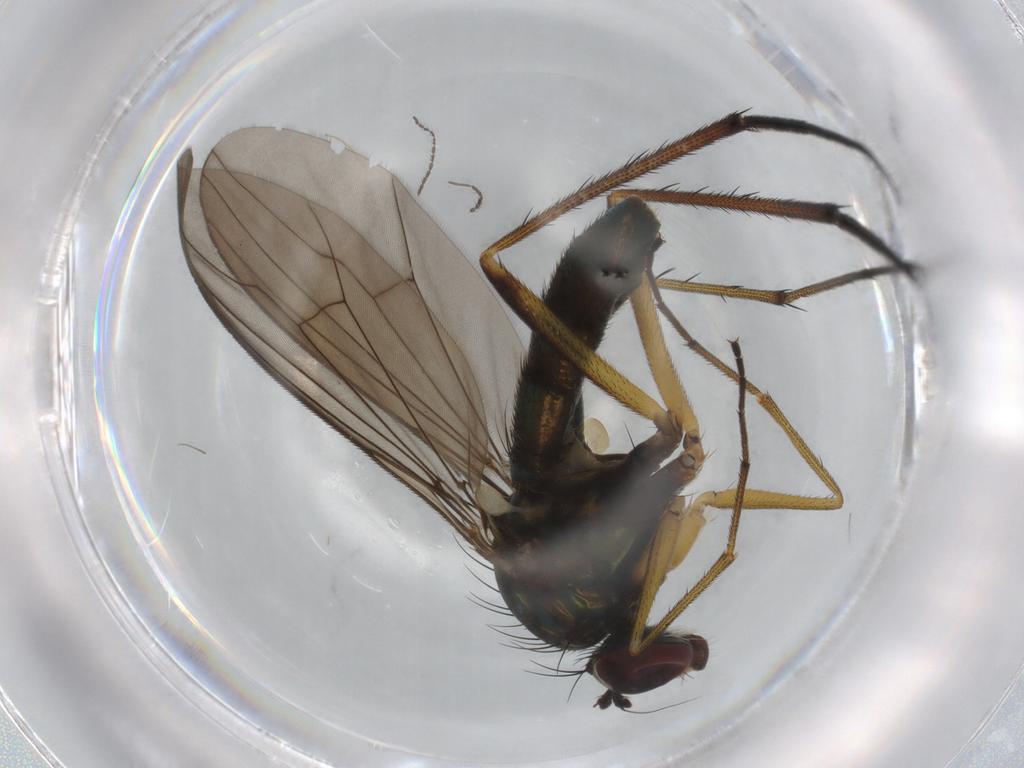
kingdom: Animalia
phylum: Arthropoda
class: Insecta
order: Diptera
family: Dolichopodidae
